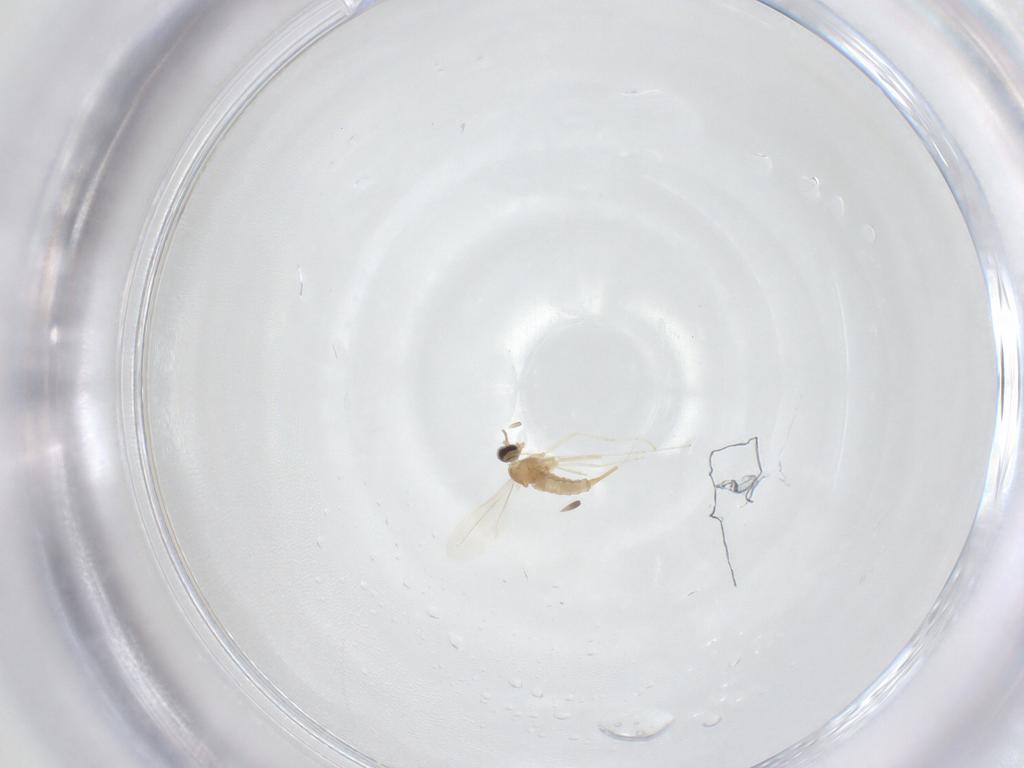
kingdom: Animalia
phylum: Arthropoda
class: Insecta
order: Diptera
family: Cecidomyiidae
